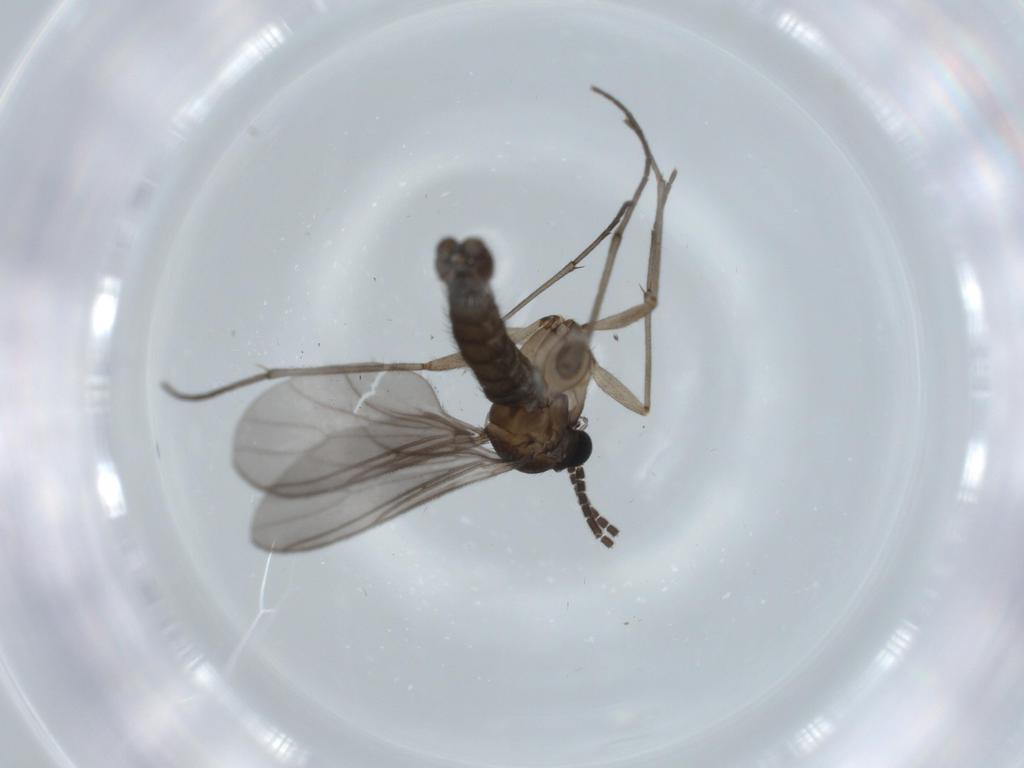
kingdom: Animalia
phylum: Arthropoda
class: Insecta
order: Diptera
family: Sciaridae
